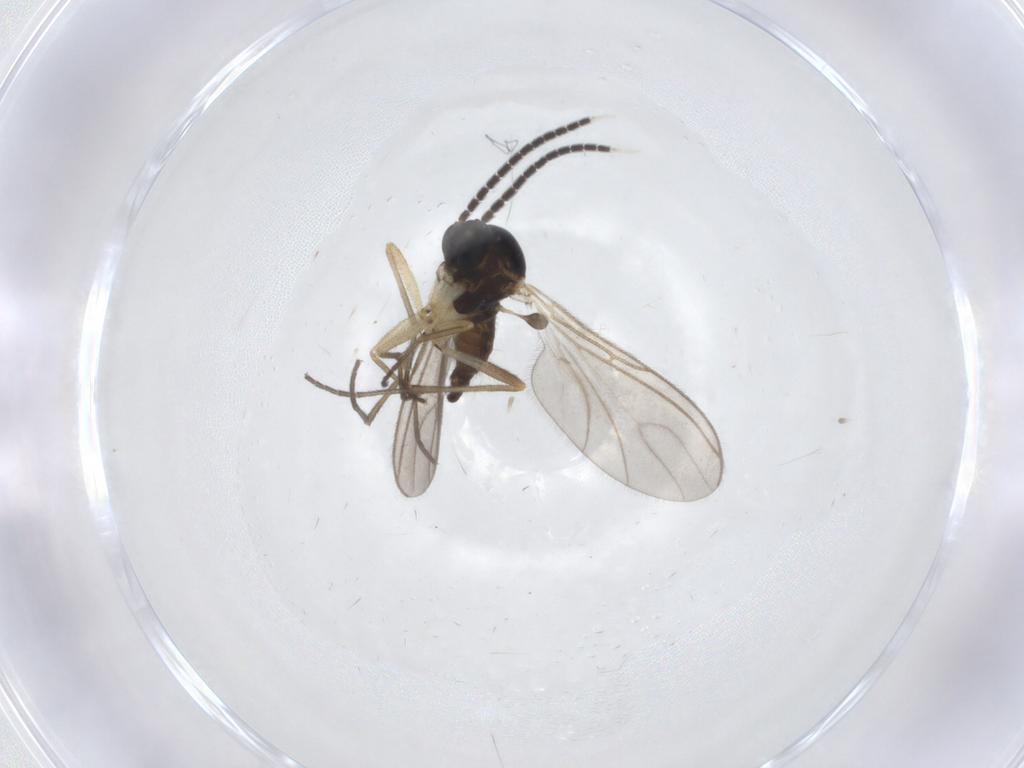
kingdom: Animalia
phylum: Arthropoda
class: Insecta
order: Diptera
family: Sciaridae
